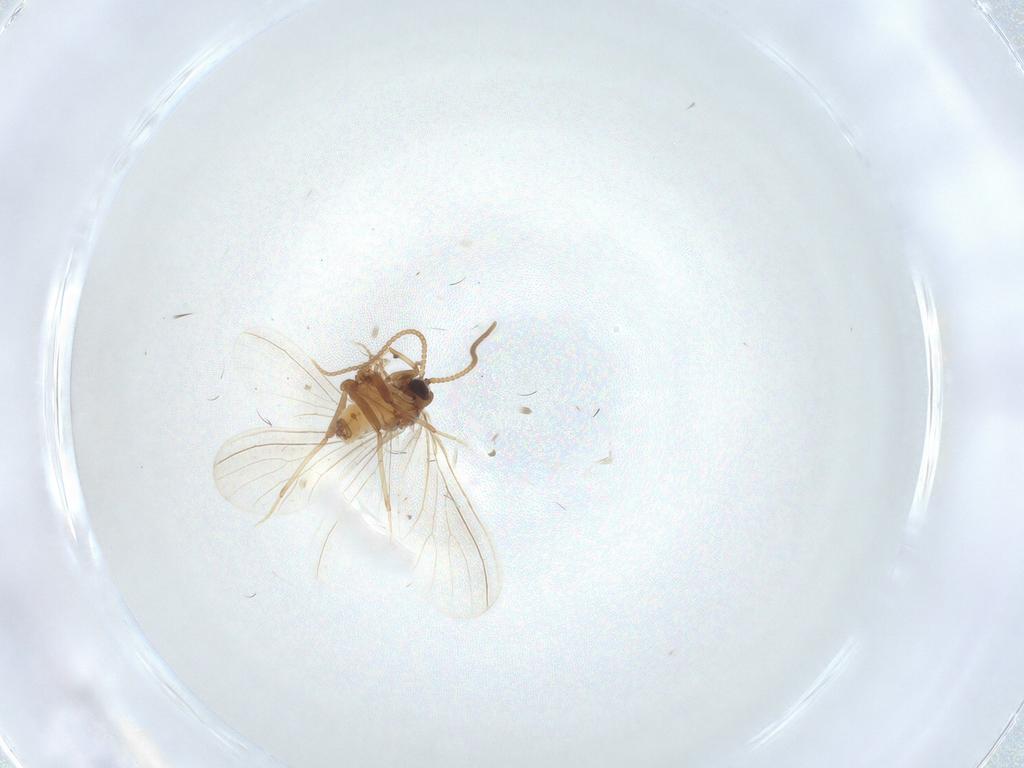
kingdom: Animalia
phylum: Arthropoda
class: Insecta
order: Neuroptera
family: Coniopterygidae
